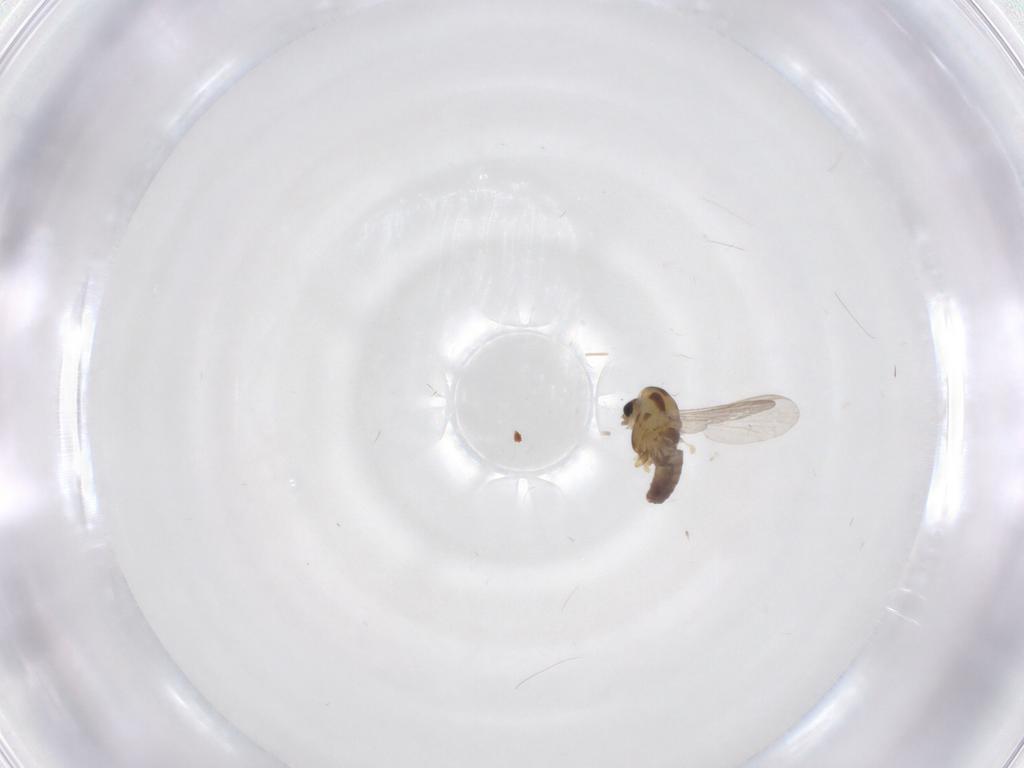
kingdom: Animalia
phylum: Arthropoda
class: Insecta
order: Diptera
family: Chironomidae
